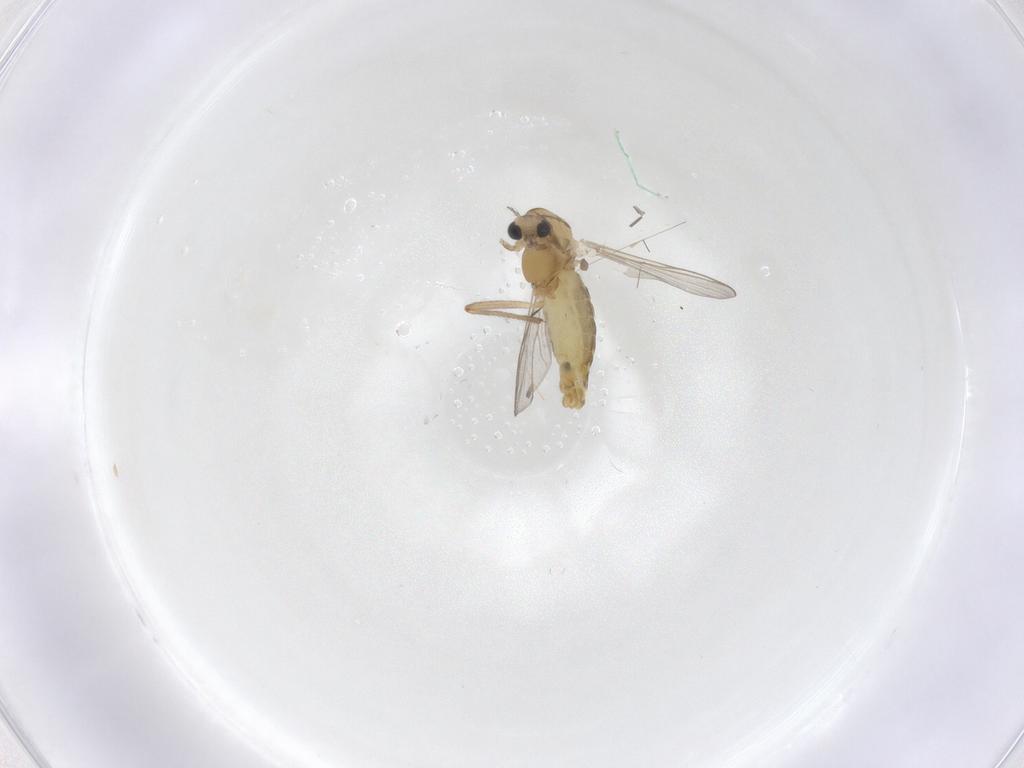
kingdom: Animalia
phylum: Arthropoda
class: Insecta
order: Diptera
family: Chironomidae
